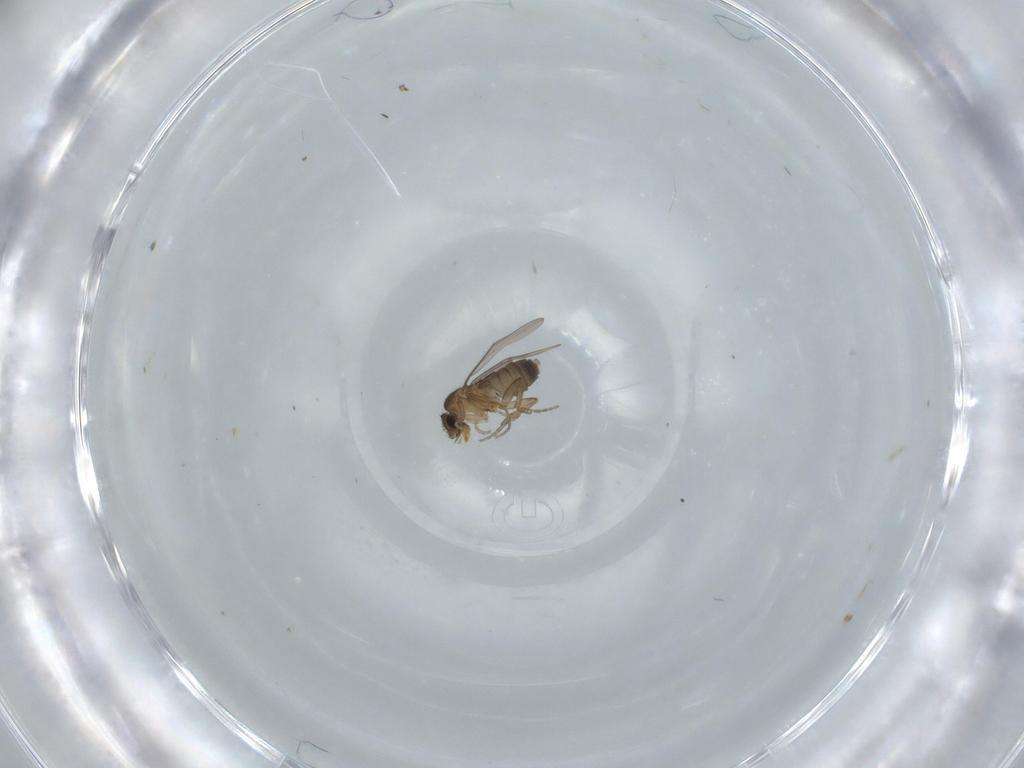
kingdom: Animalia
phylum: Arthropoda
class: Insecta
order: Diptera
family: Phoridae
